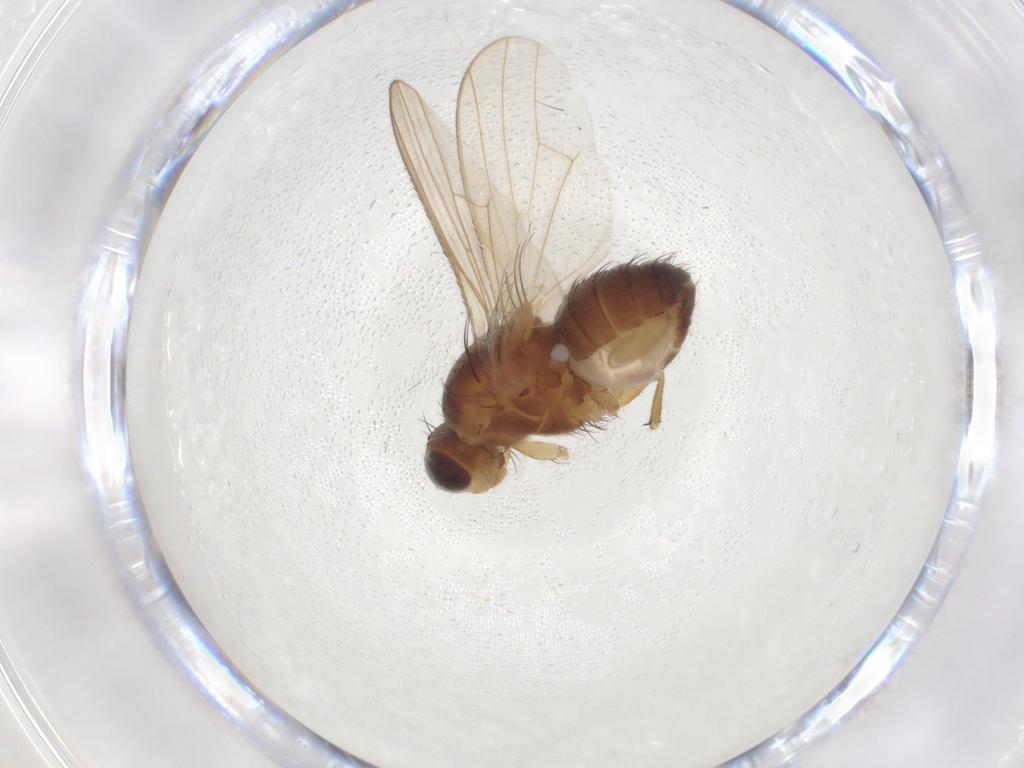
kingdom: Animalia
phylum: Arthropoda
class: Insecta
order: Diptera
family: Heleomyzidae
